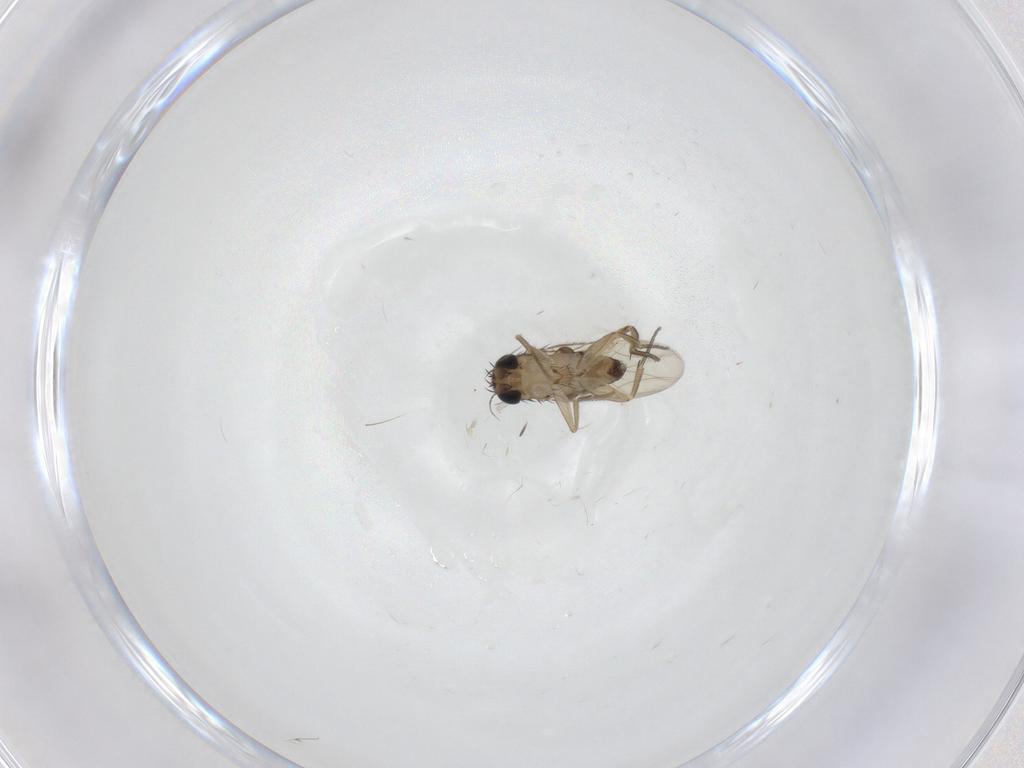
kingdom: Animalia
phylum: Arthropoda
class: Insecta
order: Diptera
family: Phoridae
